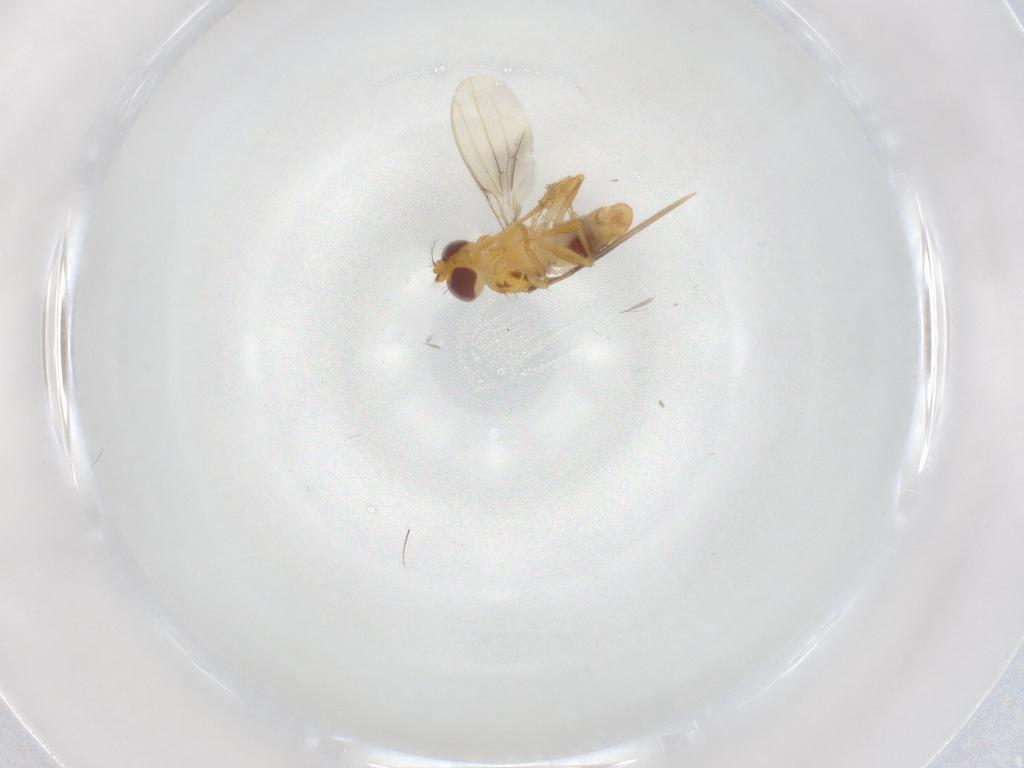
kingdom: Animalia
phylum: Arthropoda
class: Insecta
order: Diptera
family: Periscelididae
